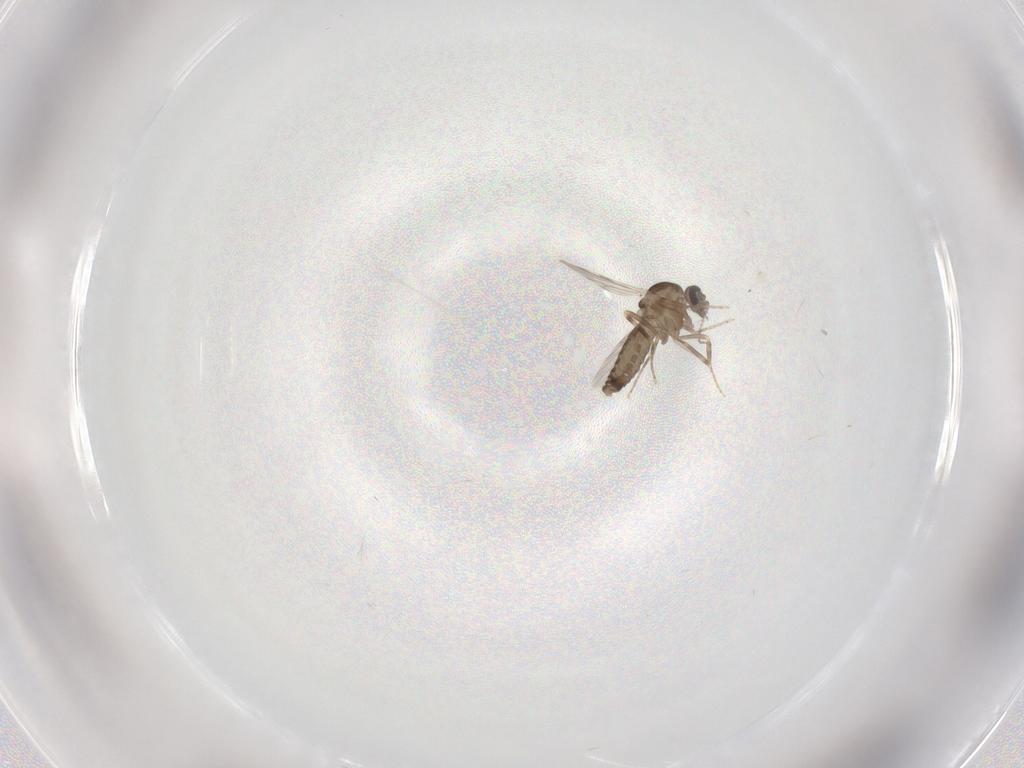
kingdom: Animalia
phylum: Arthropoda
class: Insecta
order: Diptera
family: Ceratopogonidae
